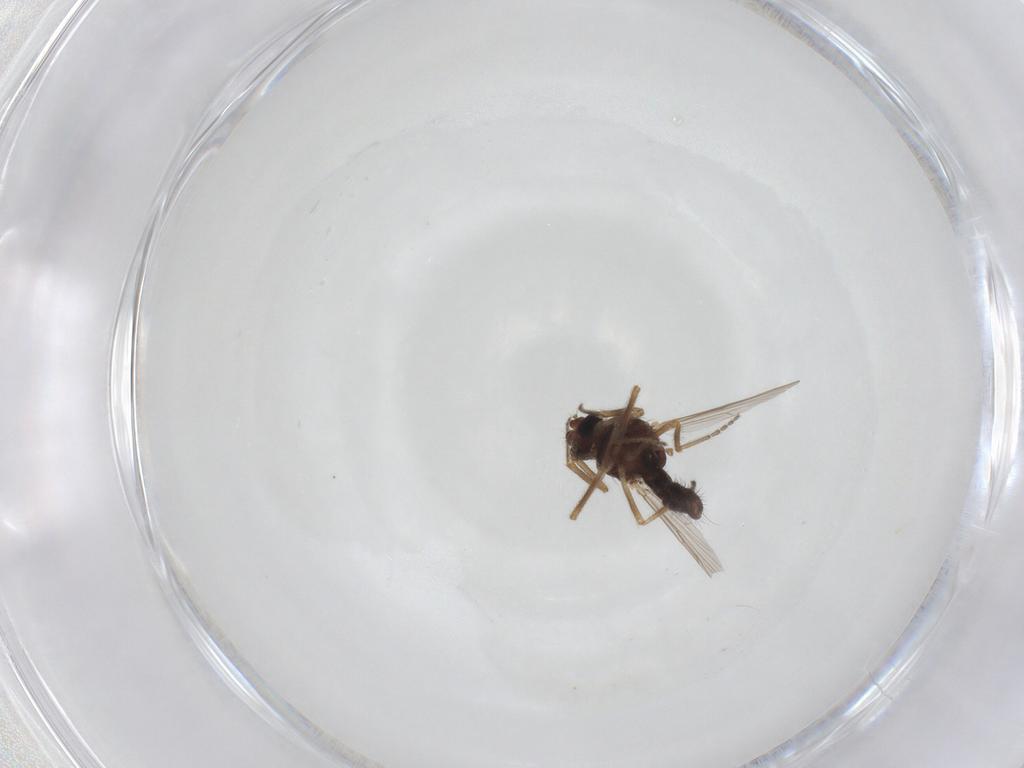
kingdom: Animalia
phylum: Arthropoda
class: Insecta
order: Diptera
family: Ceratopogonidae
